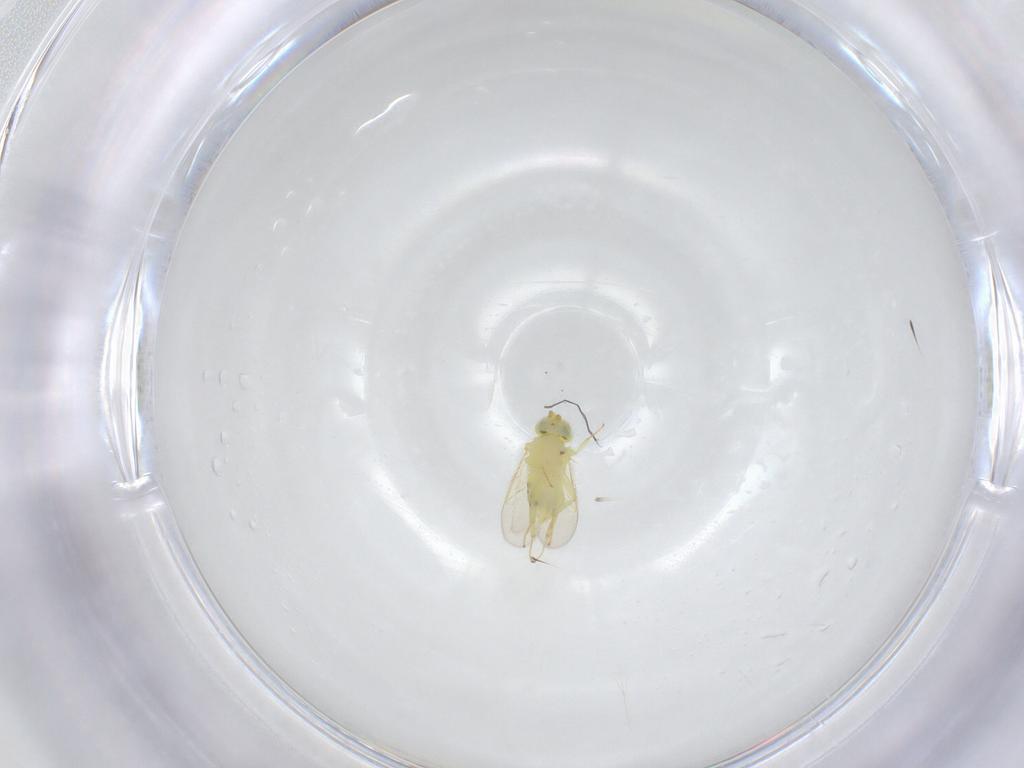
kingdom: Animalia
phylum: Arthropoda
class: Insecta
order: Hymenoptera
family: Aphelinidae
